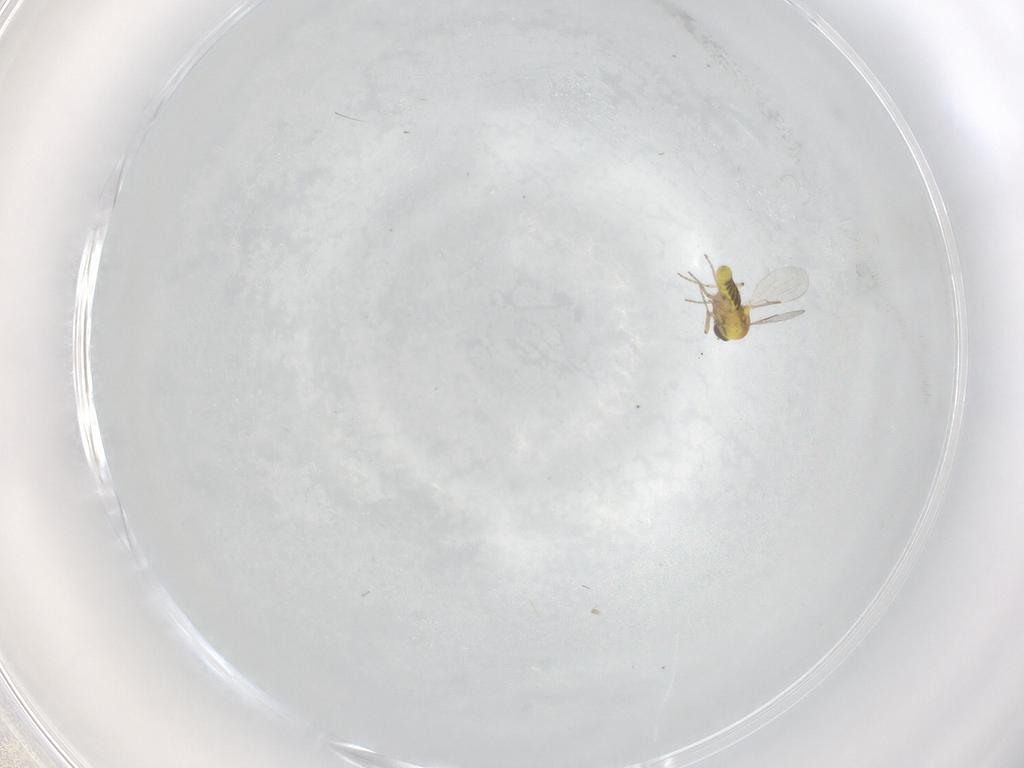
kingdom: Animalia
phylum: Arthropoda
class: Insecta
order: Diptera
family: Ceratopogonidae
